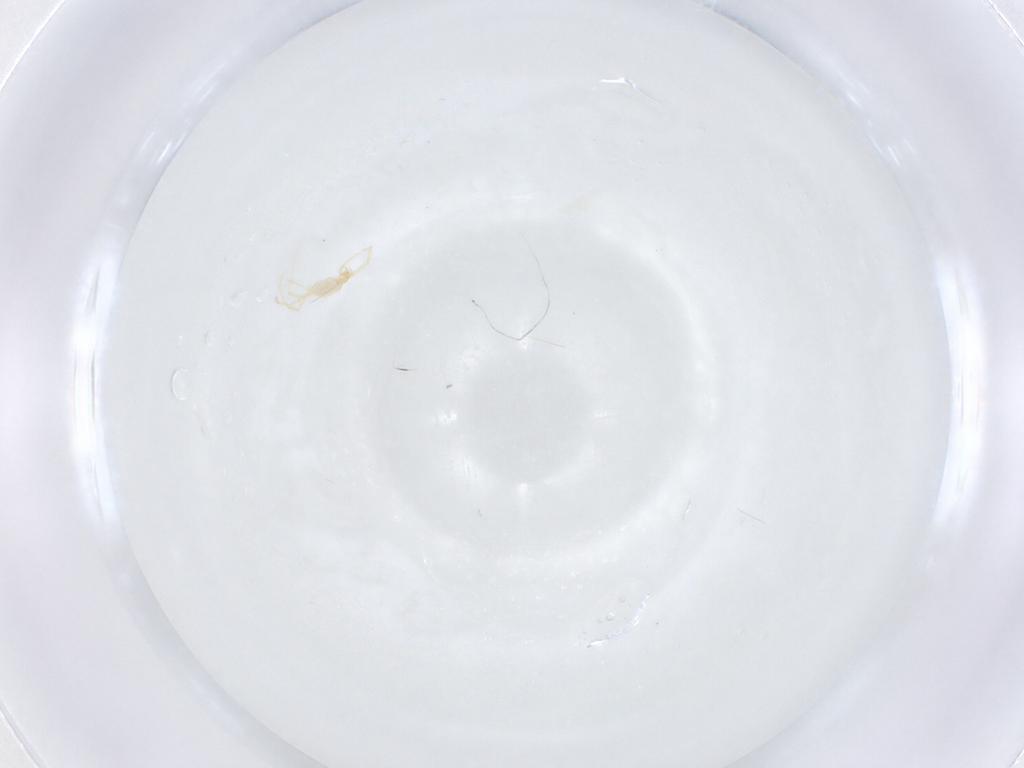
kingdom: Animalia
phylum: Arthropoda
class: Arachnida
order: Trombidiformes
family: Erythraeidae
